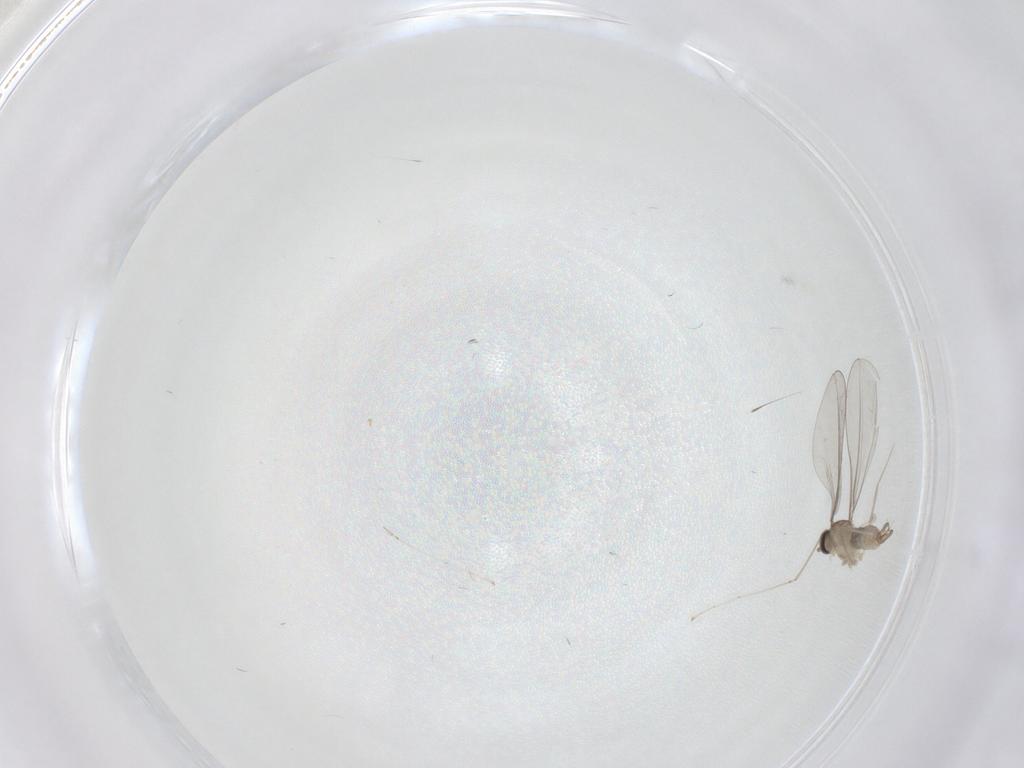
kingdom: Animalia
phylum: Arthropoda
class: Insecta
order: Diptera
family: Cecidomyiidae
